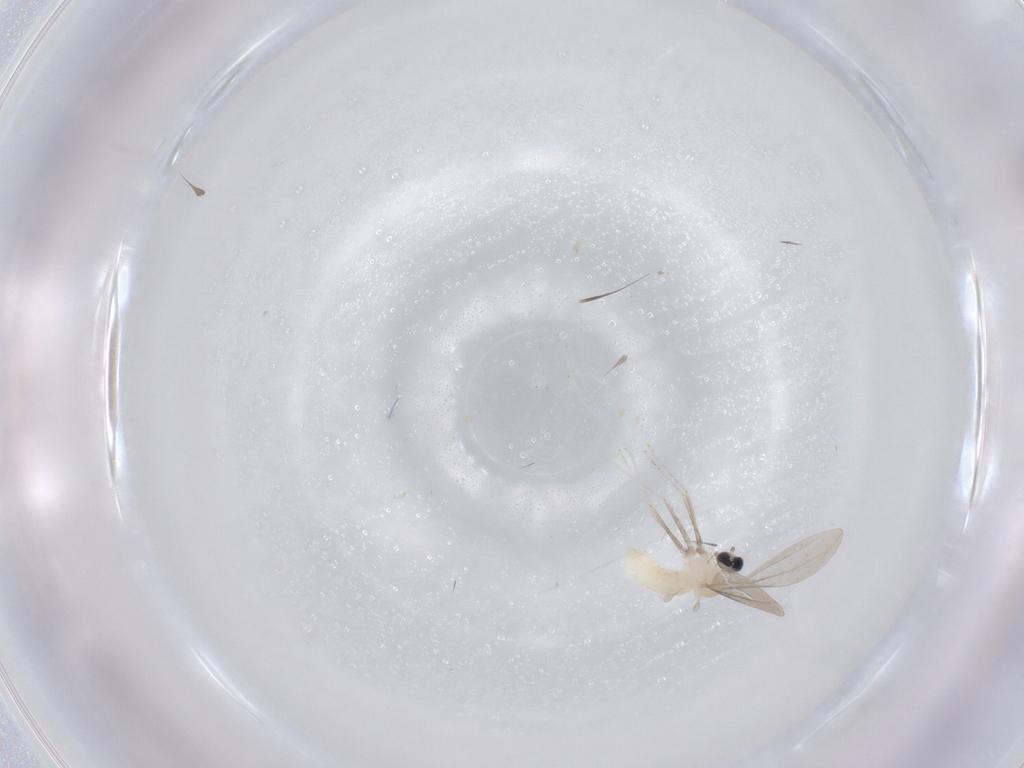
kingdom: Animalia
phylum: Arthropoda
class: Insecta
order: Diptera
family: Cecidomyiidae
